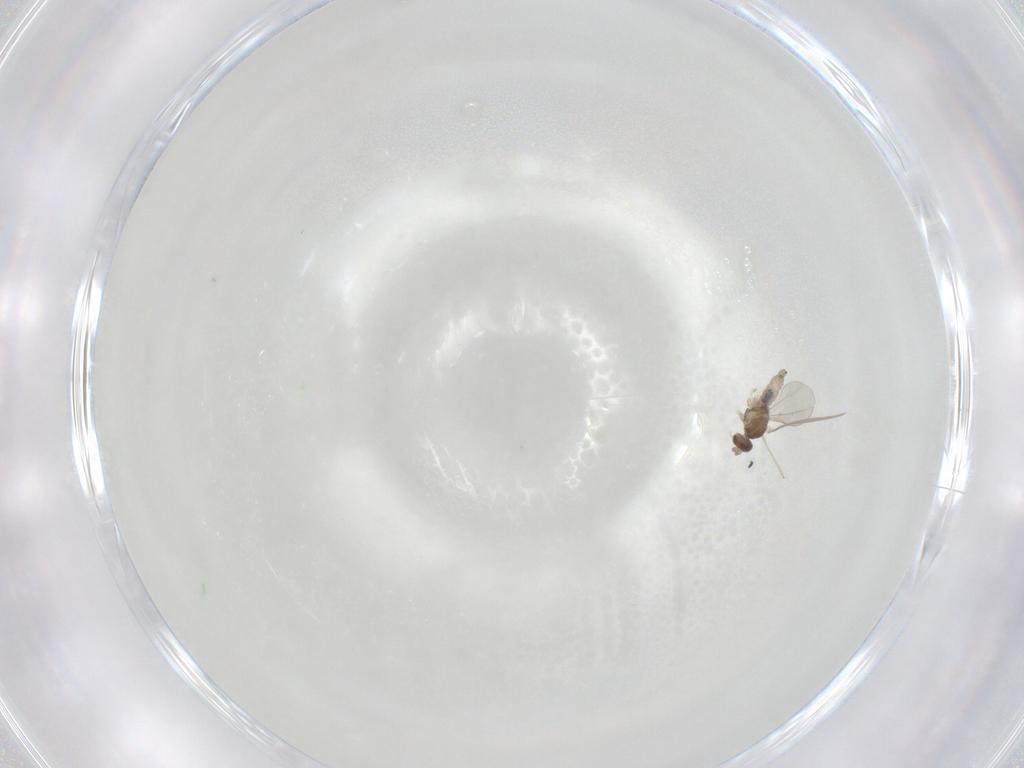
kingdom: Animalia
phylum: Arthropoda
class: Insecta
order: Diptera
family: Cecidomyiidae
